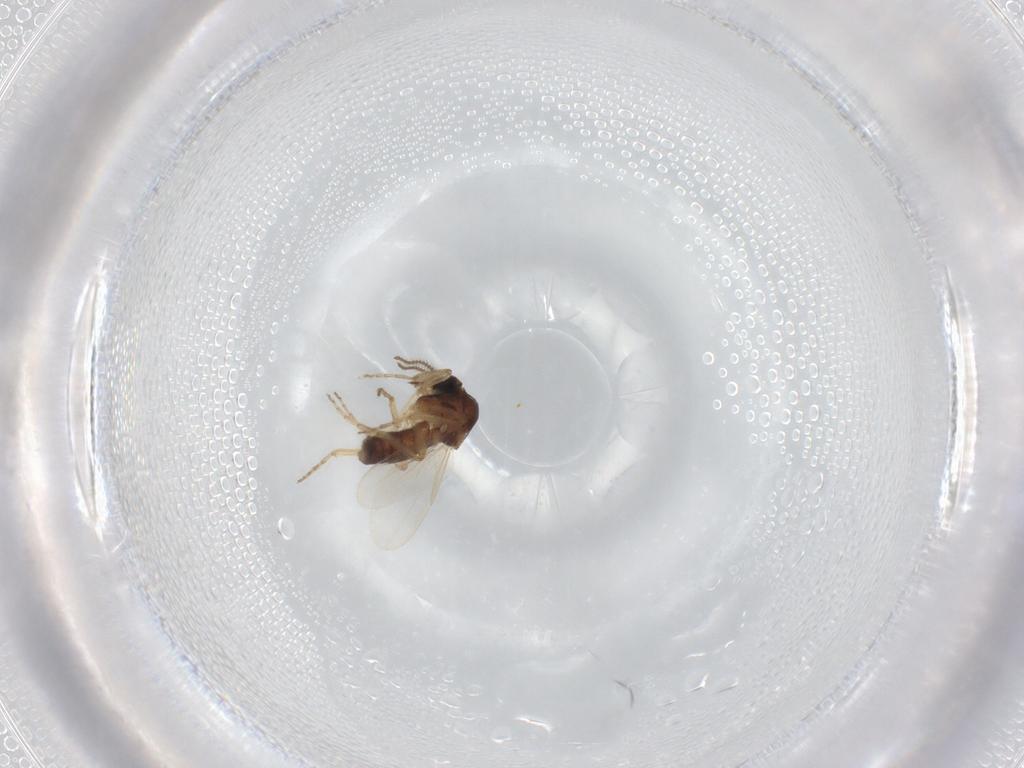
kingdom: Animalia
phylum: Arthropoda
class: Insecta
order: Diptera
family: Ceratopogonidae
